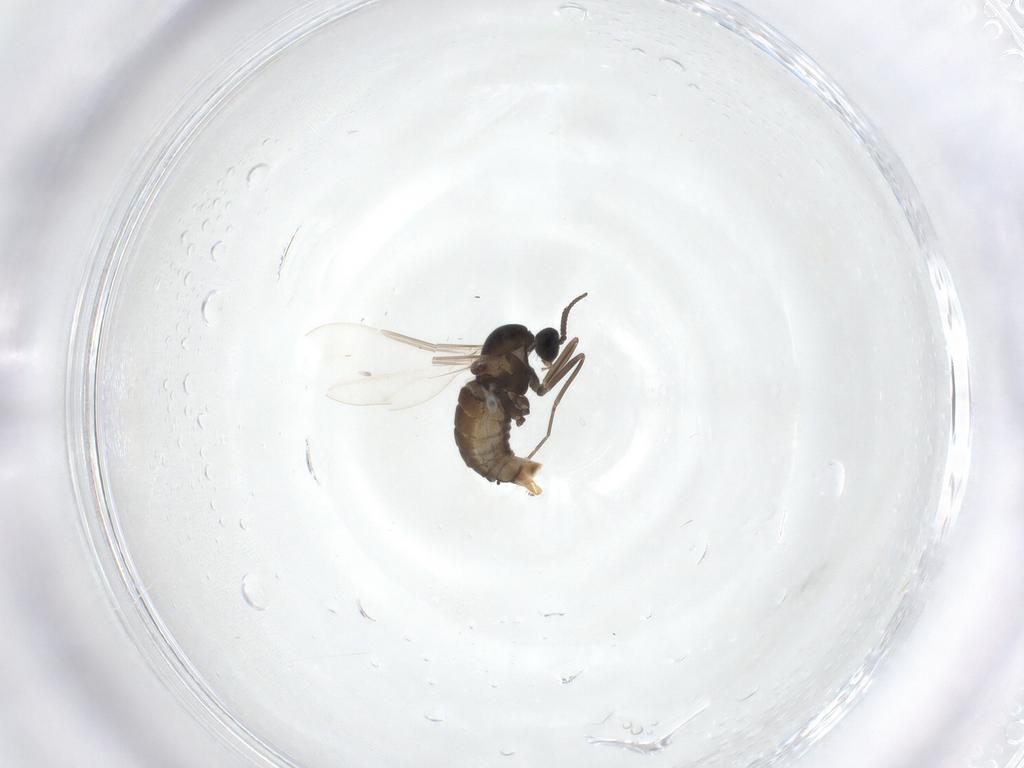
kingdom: Animalia
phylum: Arthropoda
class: Insecta
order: Diptera
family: Cecidomyiidae
